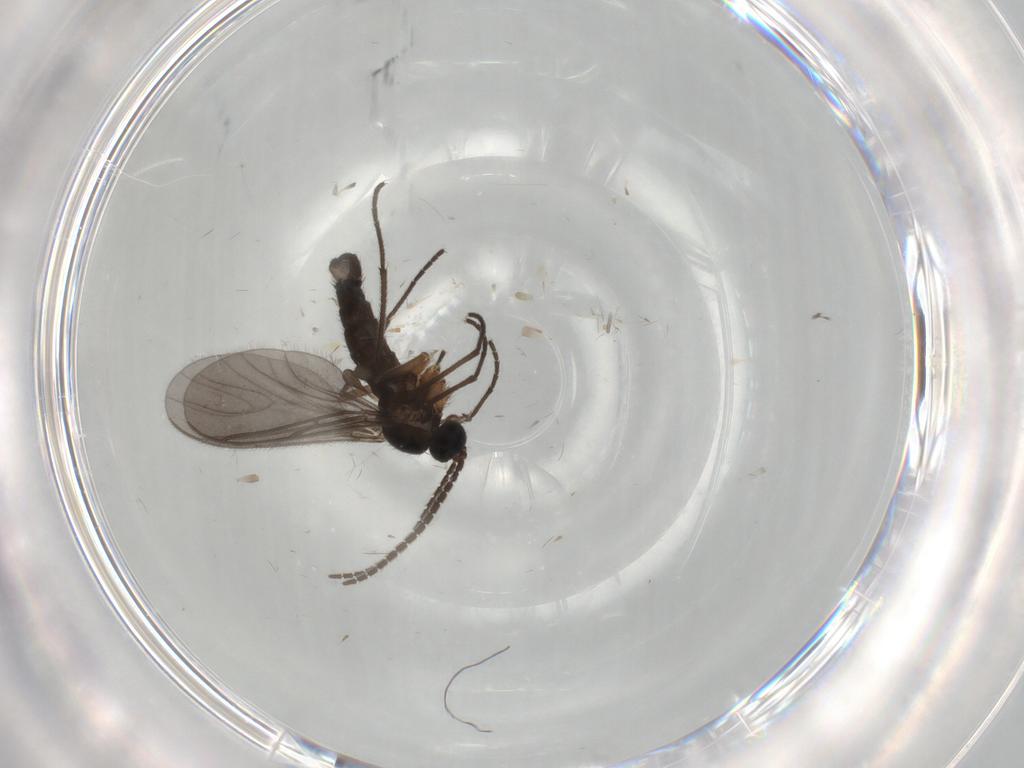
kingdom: Animalia
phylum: Arthropoda
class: Insecta
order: Diptera
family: Sciaridae
